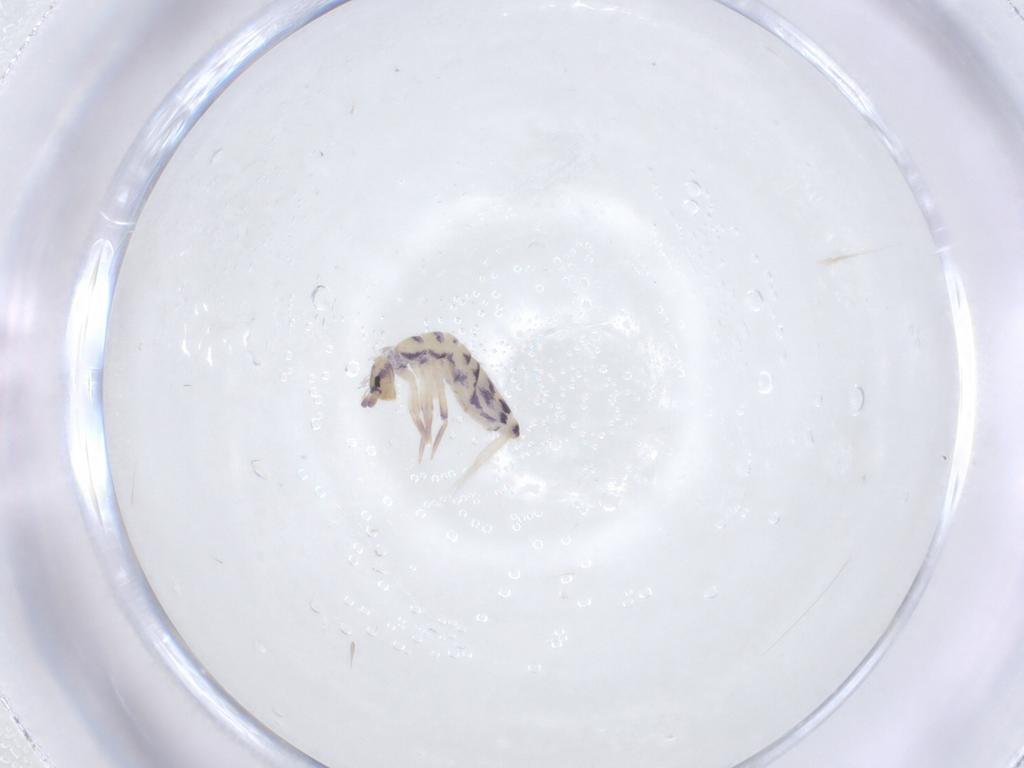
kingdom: Animalia
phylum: Arthropoda
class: Collembola
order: Entomobryomorpha
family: Entomobryidae
